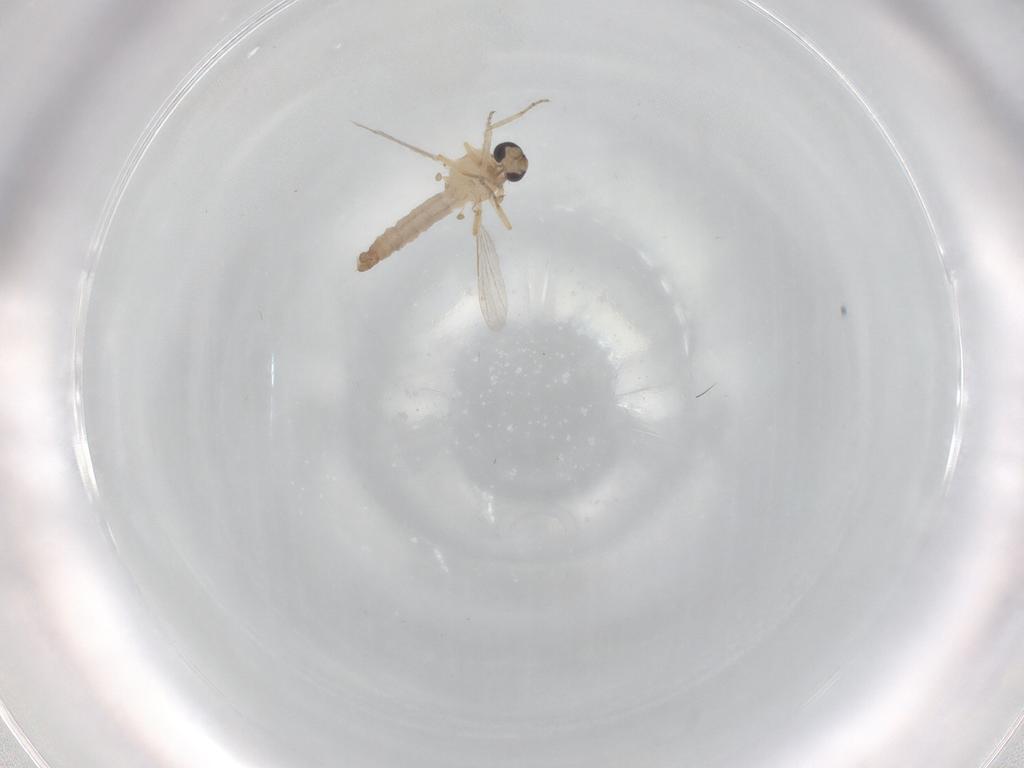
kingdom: Animalia
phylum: Arthropoda
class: Insecta
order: Diptera
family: Ceratopogonidae
